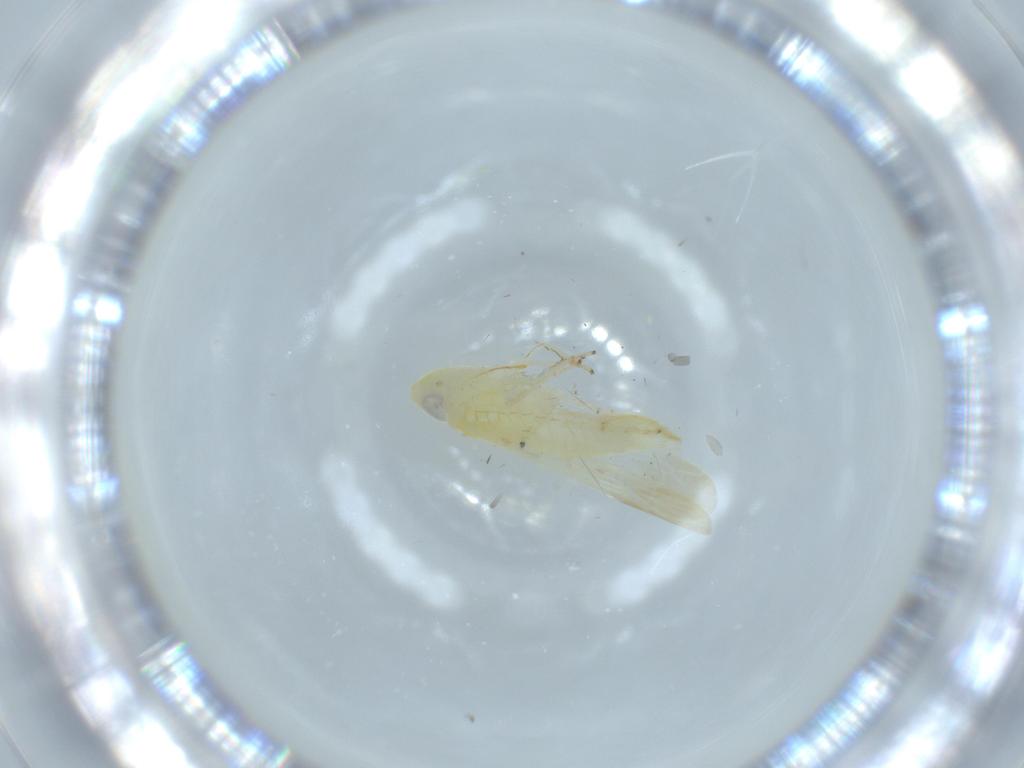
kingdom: Animalia
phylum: Arthropoda
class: Insecta
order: Hemiptera
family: Cicadellidae
